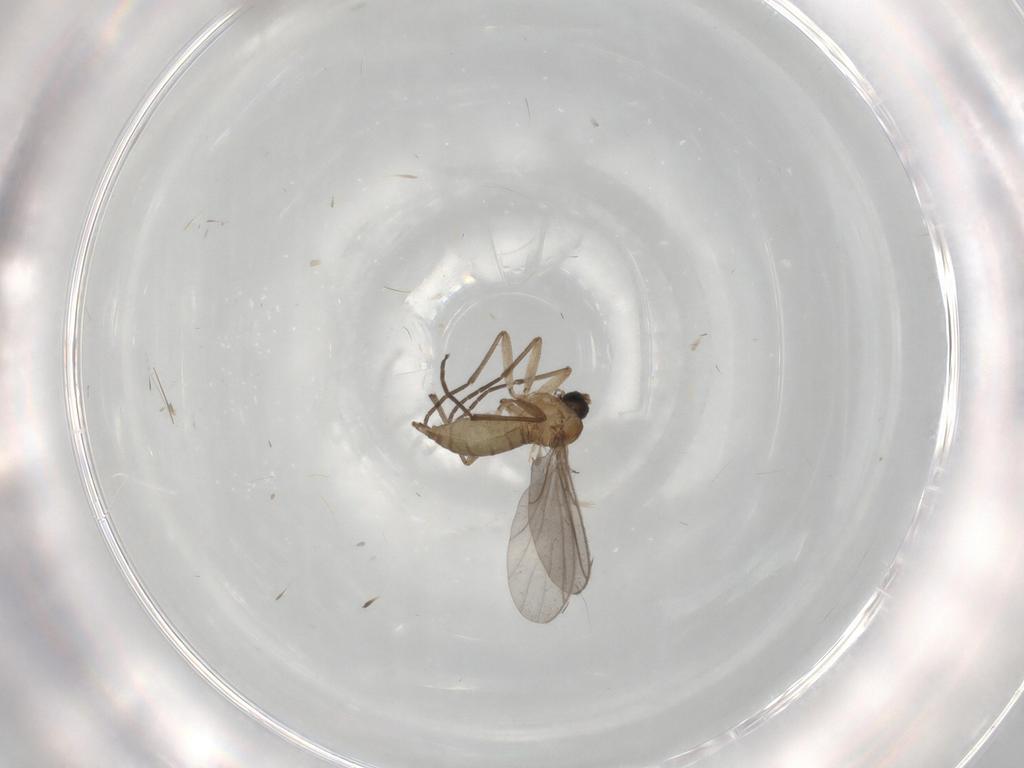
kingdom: Animalia
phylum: Arthropoda
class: Insecta
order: Diptera
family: Phoridae
